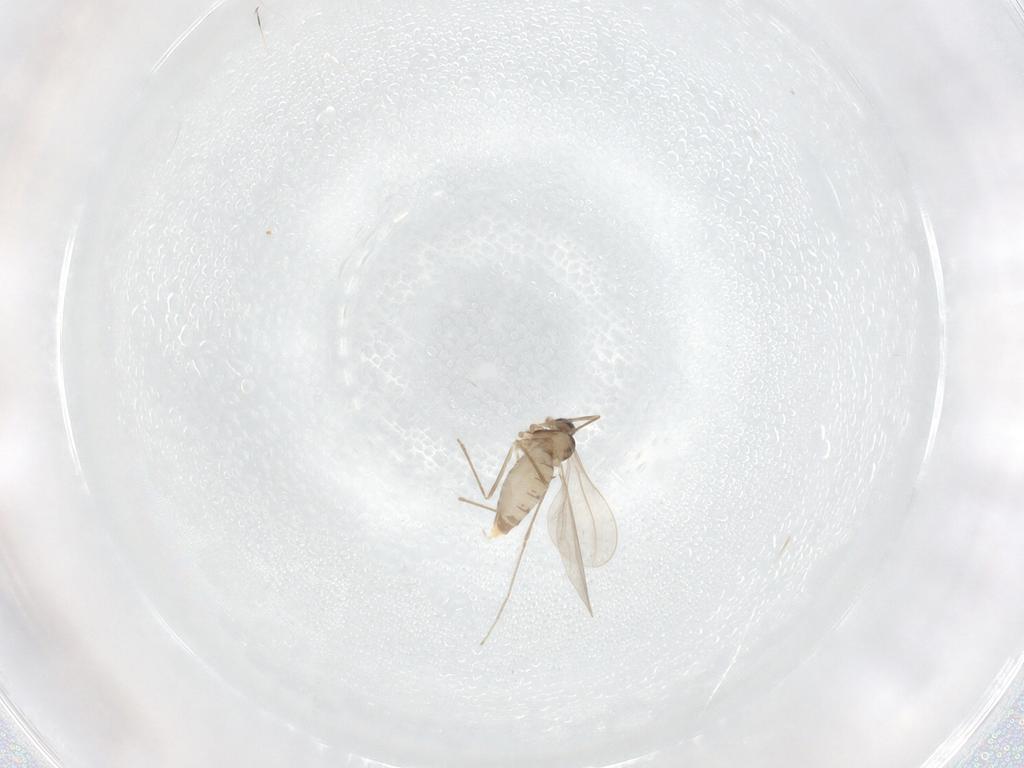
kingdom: Animalia
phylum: Arthropoda
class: Insecta
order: Diptera
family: Cecidomyiidae
